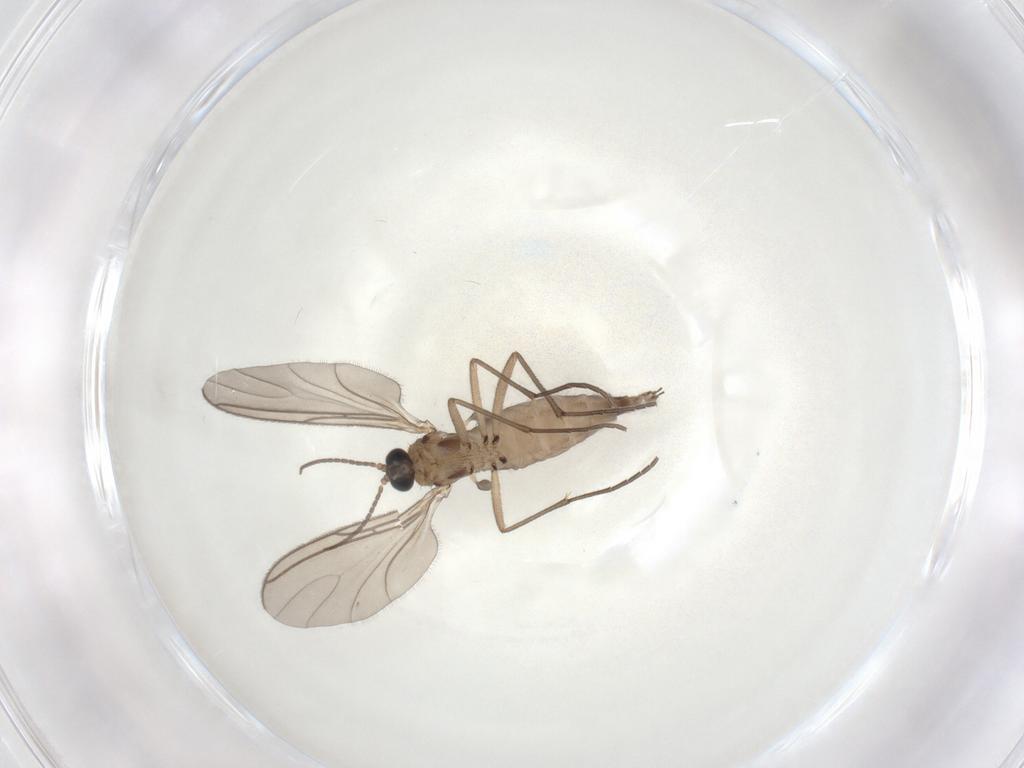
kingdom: Animalia
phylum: Arthropoda
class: Insecta
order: Diptera
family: Sciaridae
